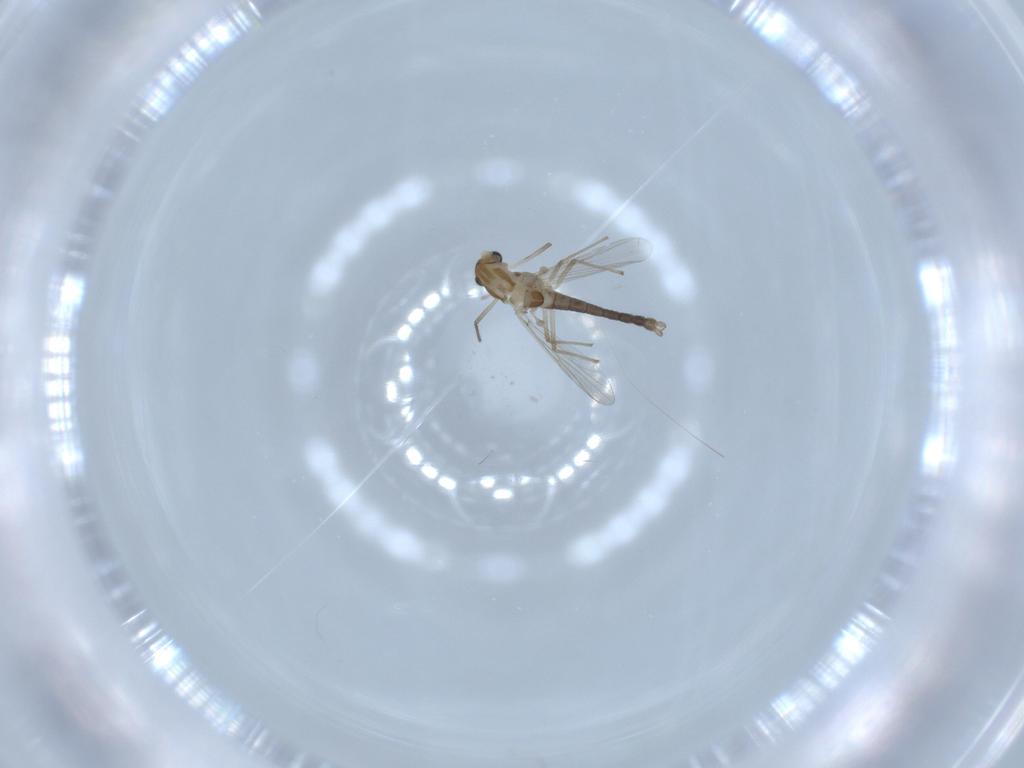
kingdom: Animalia
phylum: Arthropoda
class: Insecta
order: Diptera
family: Chironomidae
